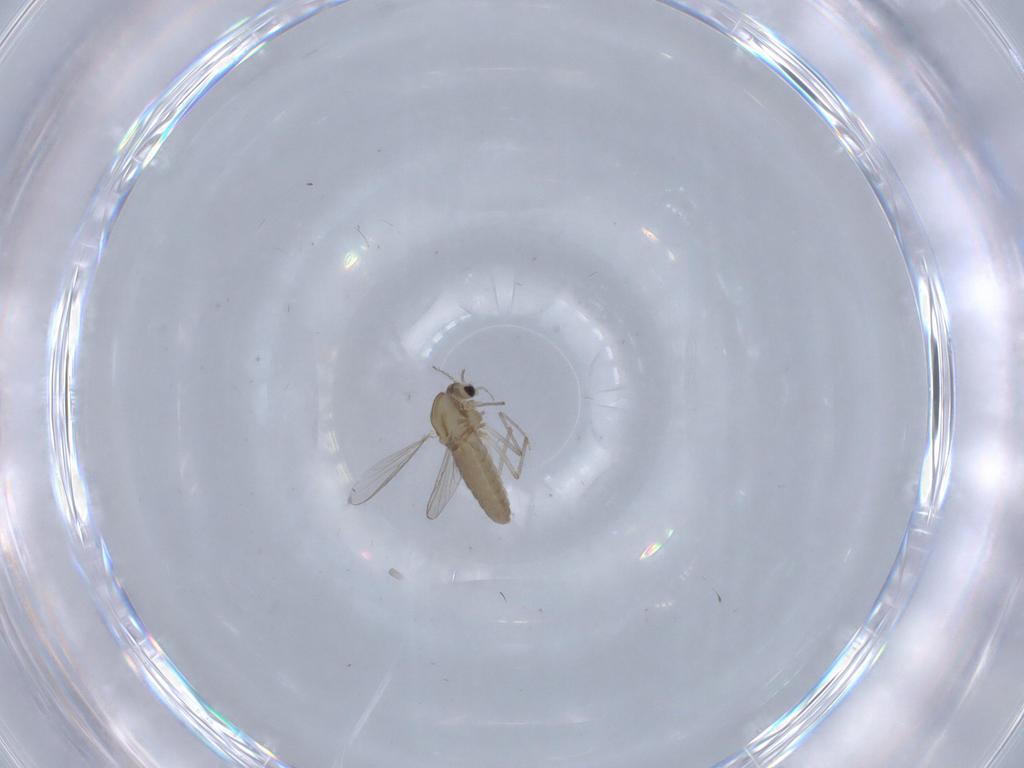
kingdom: Animalia
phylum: Arthropoda
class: Insecta
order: Diptera
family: Chironomidae
